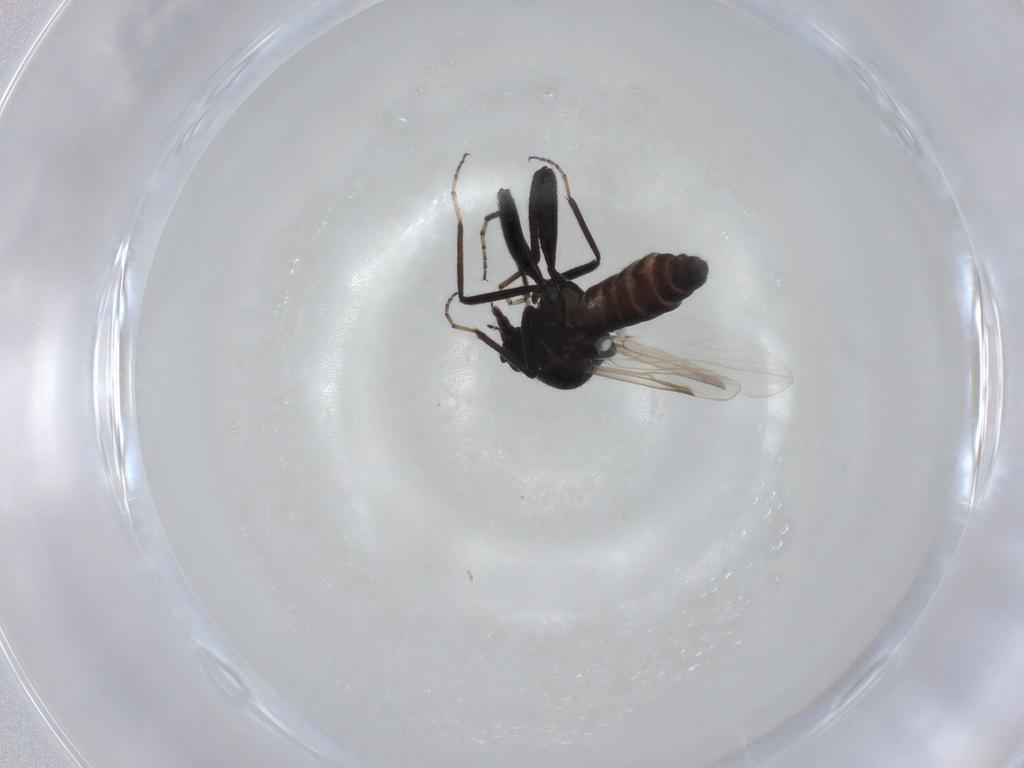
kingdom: Animalia
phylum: Arthropoda
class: Insecta
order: Diptera
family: Ceratopogonidae
